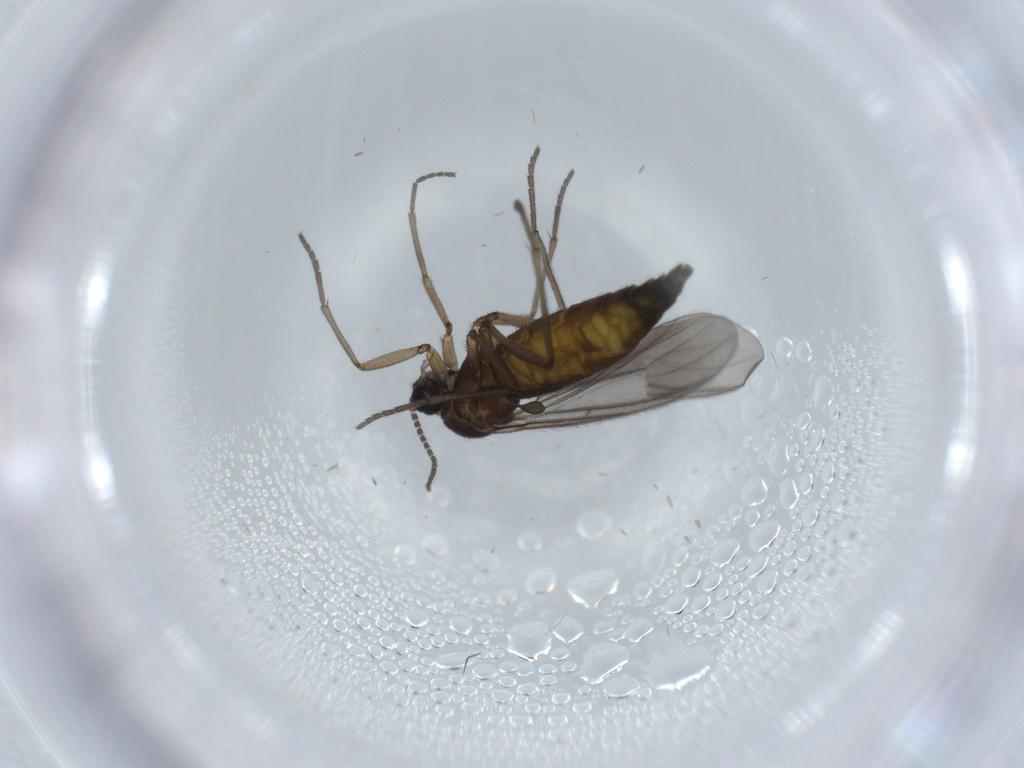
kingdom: Animalia
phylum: Arthropoda
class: Insecta
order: Diptera
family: Sciaridae
